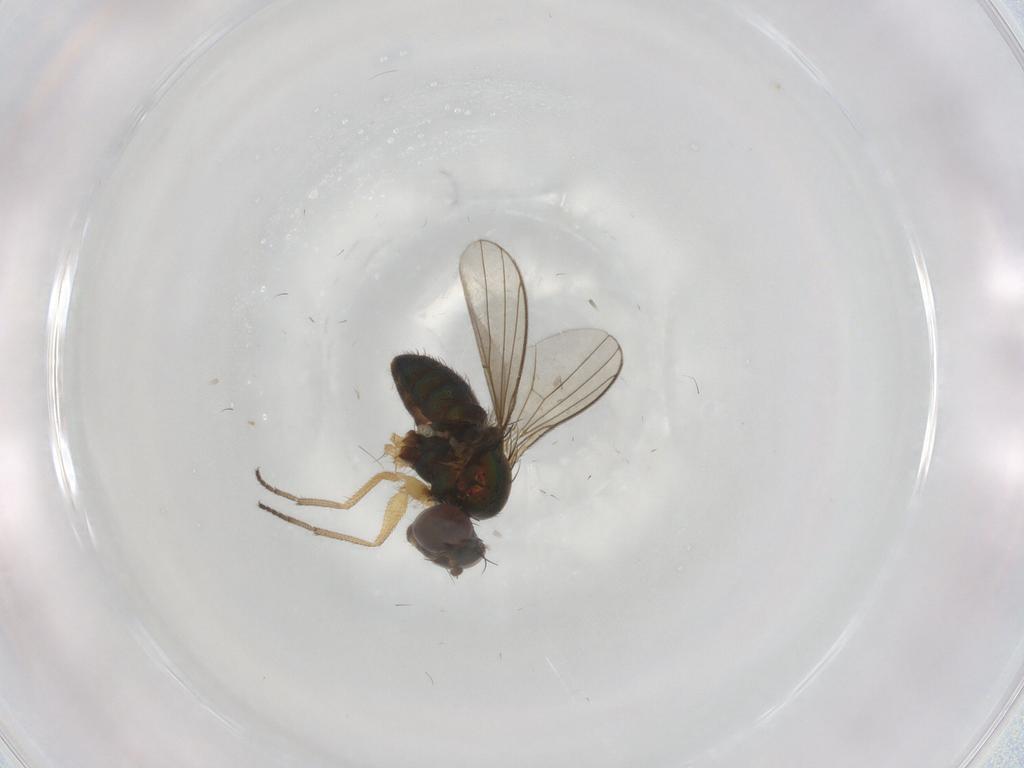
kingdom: Animalia
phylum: Arthropoda
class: Insecta
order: Diptera
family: Dolichopodidae
